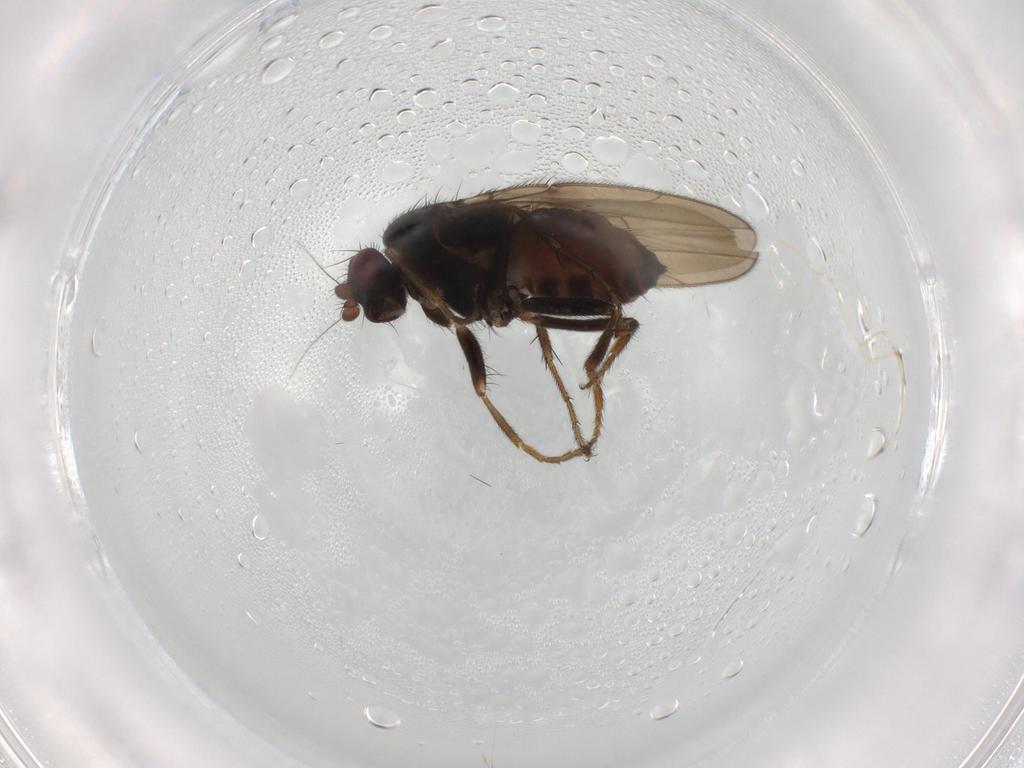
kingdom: Animalia
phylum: Arthropoda
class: Insecta
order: Diptera
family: Sphaeroceridae
